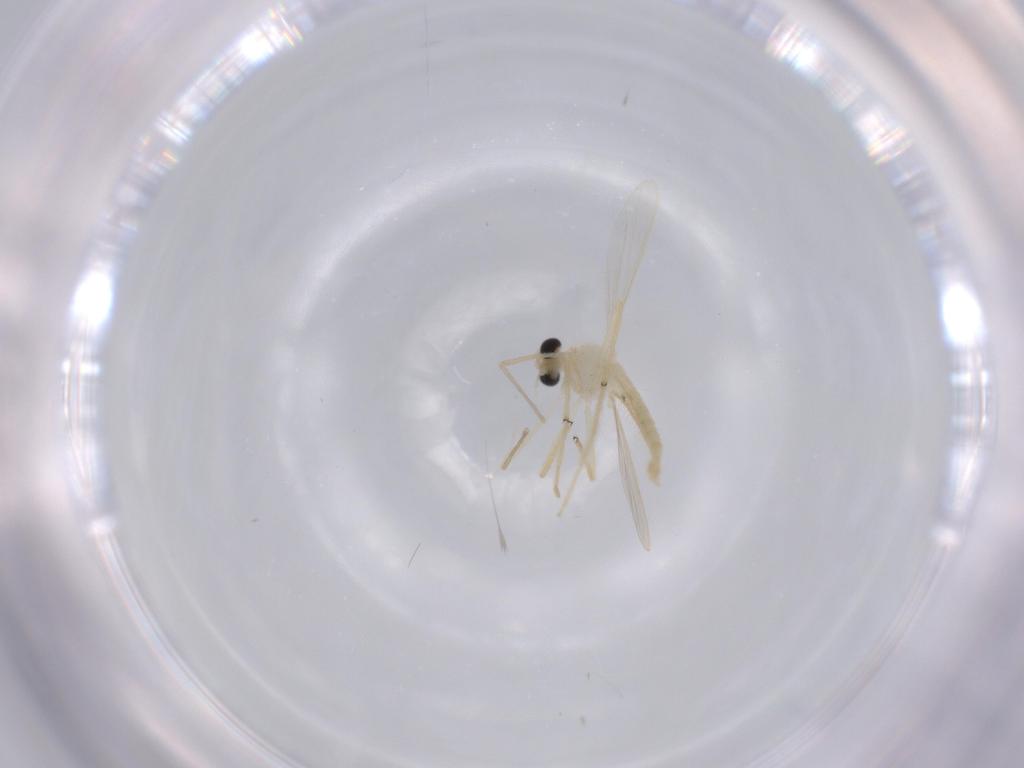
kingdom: Animalia
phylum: Arthropoda
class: Insecta
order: Diptera
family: Chironomidae
